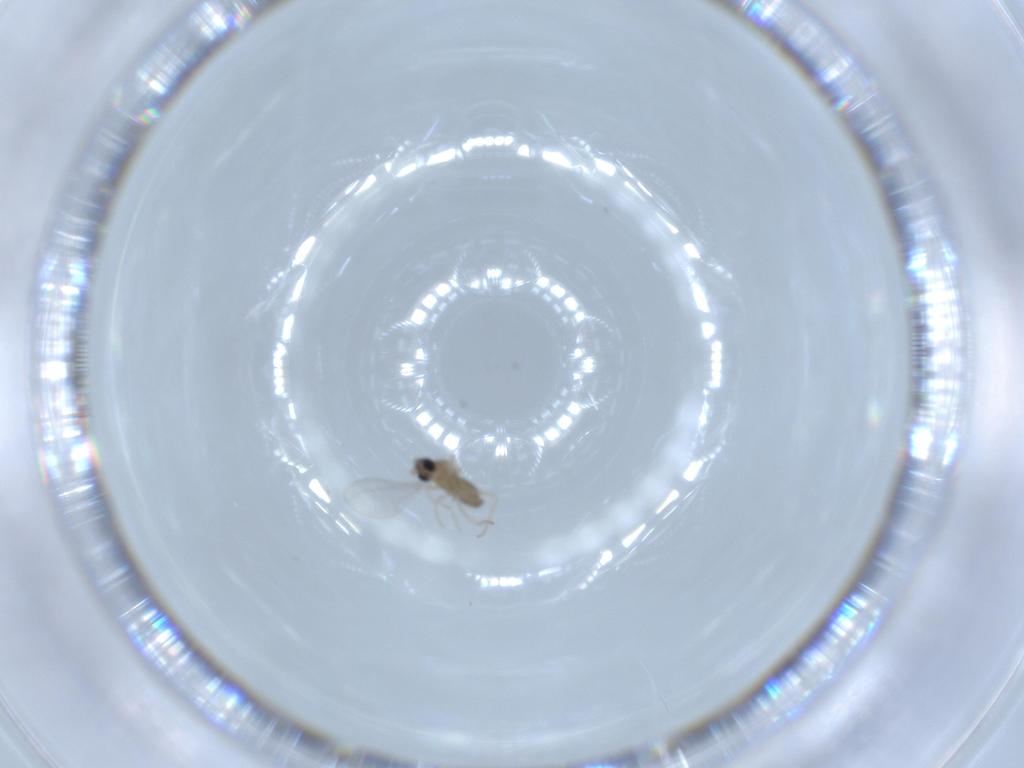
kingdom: Animalia
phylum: Arthropoda
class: Insecta
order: Diptera
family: Cecidomyiidae
